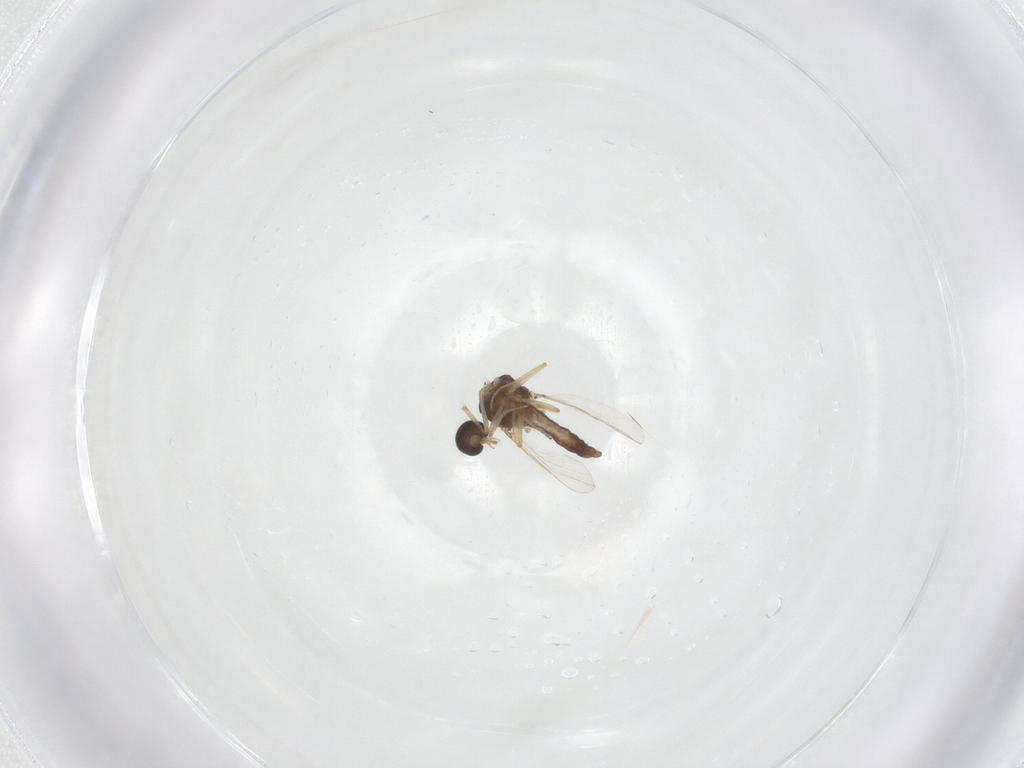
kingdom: Animalia
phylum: Arthropoda
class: Insecta
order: Diptera
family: Ceratopogonidae
